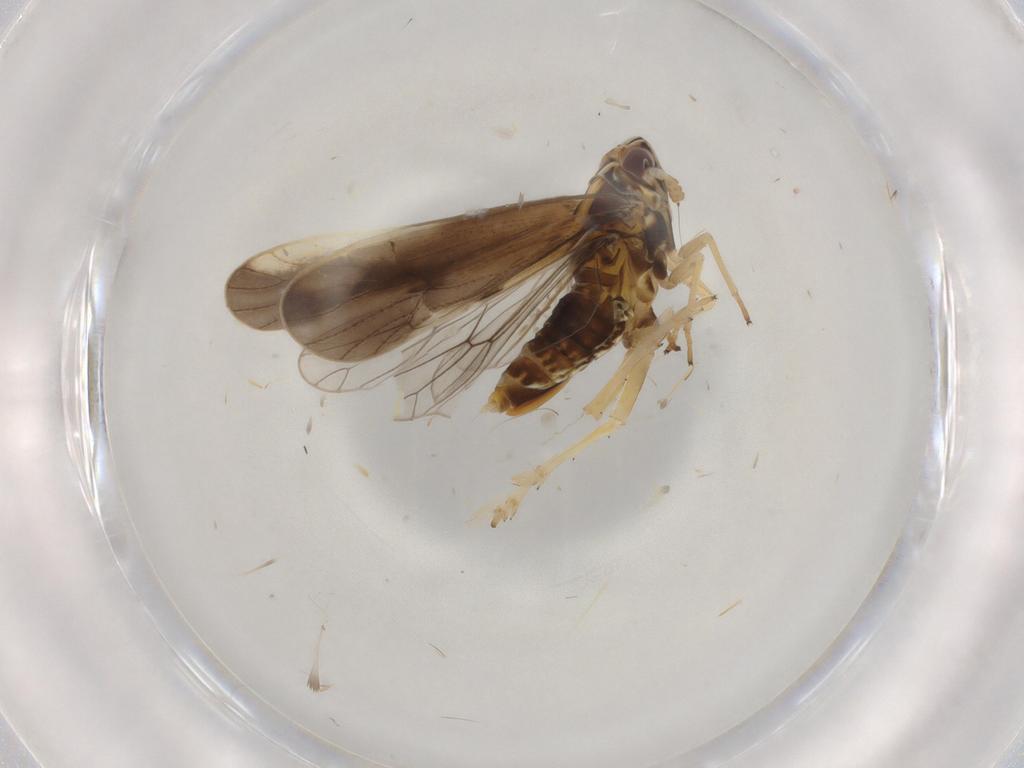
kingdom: Animalia
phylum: Arthropoda
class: Insecta
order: Hemiptera
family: Delphacidae
